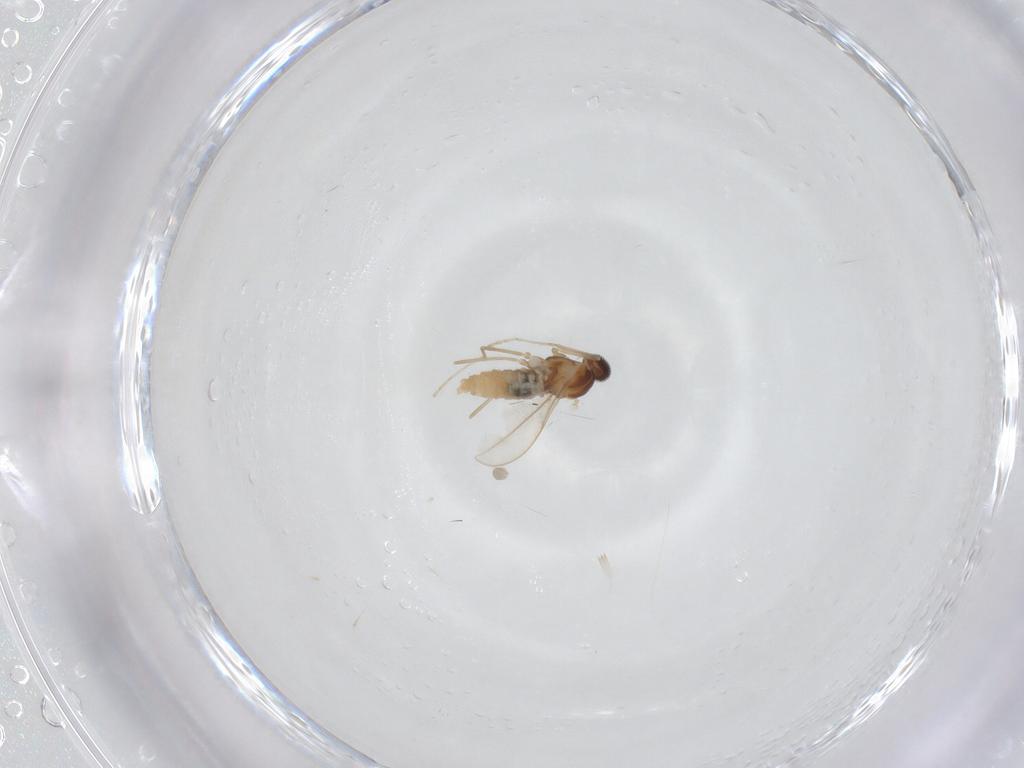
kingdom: Animalia
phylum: Arthropoda
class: Insecta
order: Diptera
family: Cecidomyiidae
